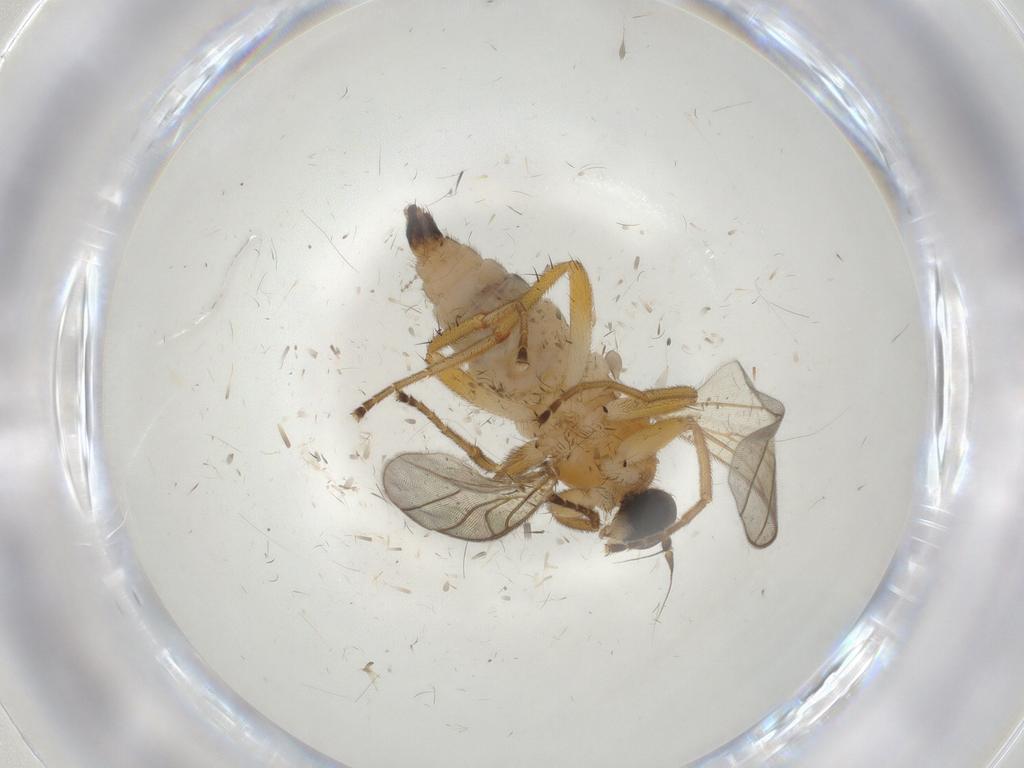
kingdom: Animalia
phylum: Arthropoda
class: Insecta
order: Diptera
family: Hybotidae
